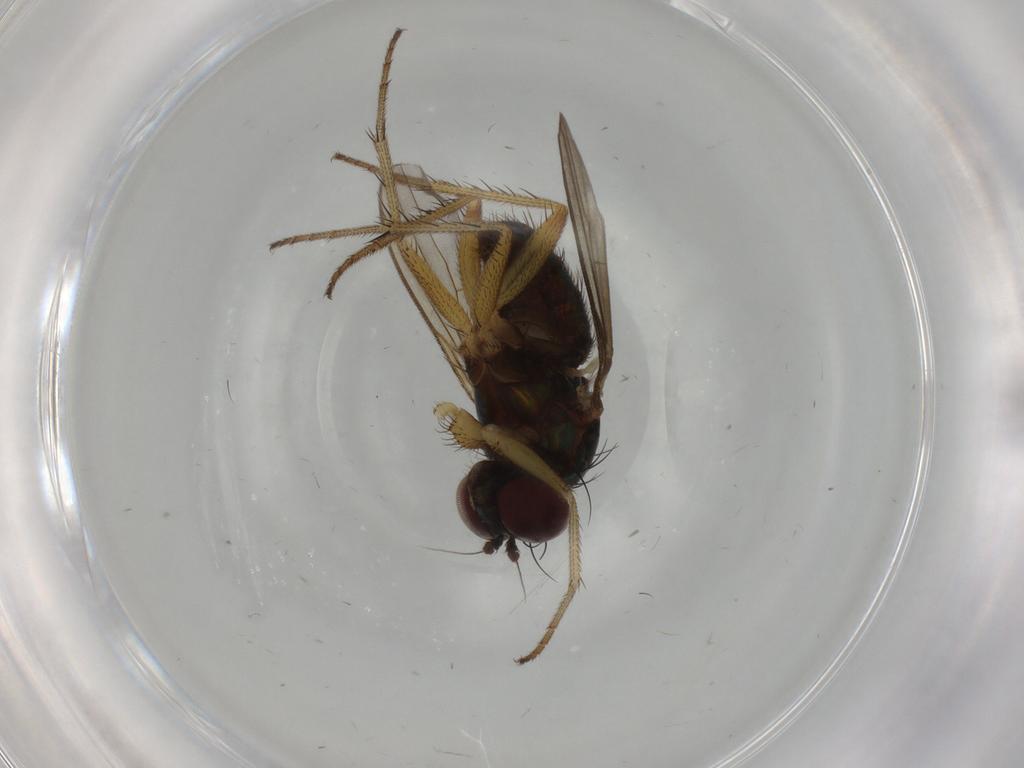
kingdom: Animalia
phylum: Arthropoda
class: Insecta
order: Diptera
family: Dolichopodidae
